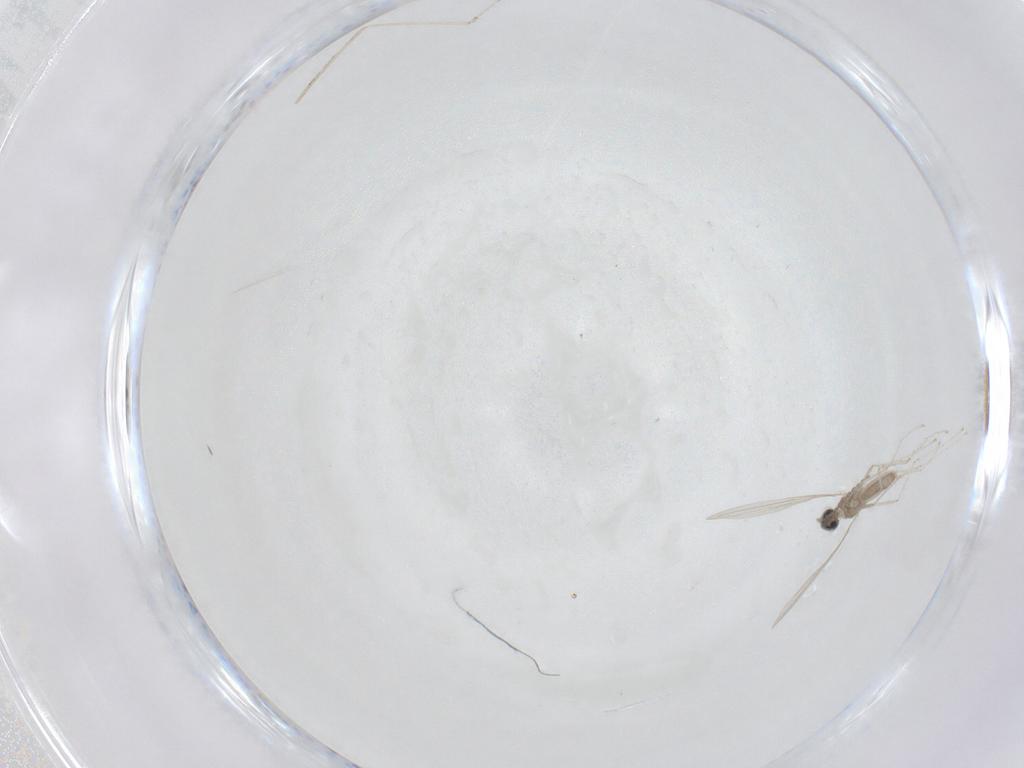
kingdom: Animalia
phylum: Arthropoda
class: Insecta
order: Diptera
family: Cecidomyiidae
